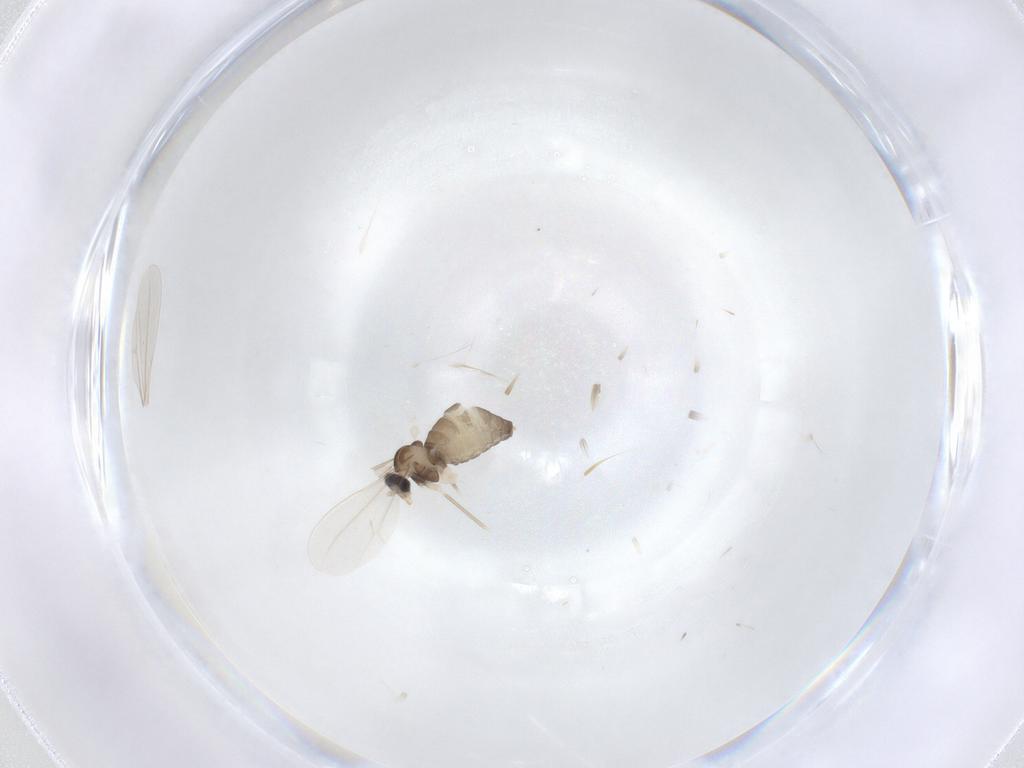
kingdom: Animalia
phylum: Arthropoda
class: Insecta
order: Diptera
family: Cecidomyiidae
